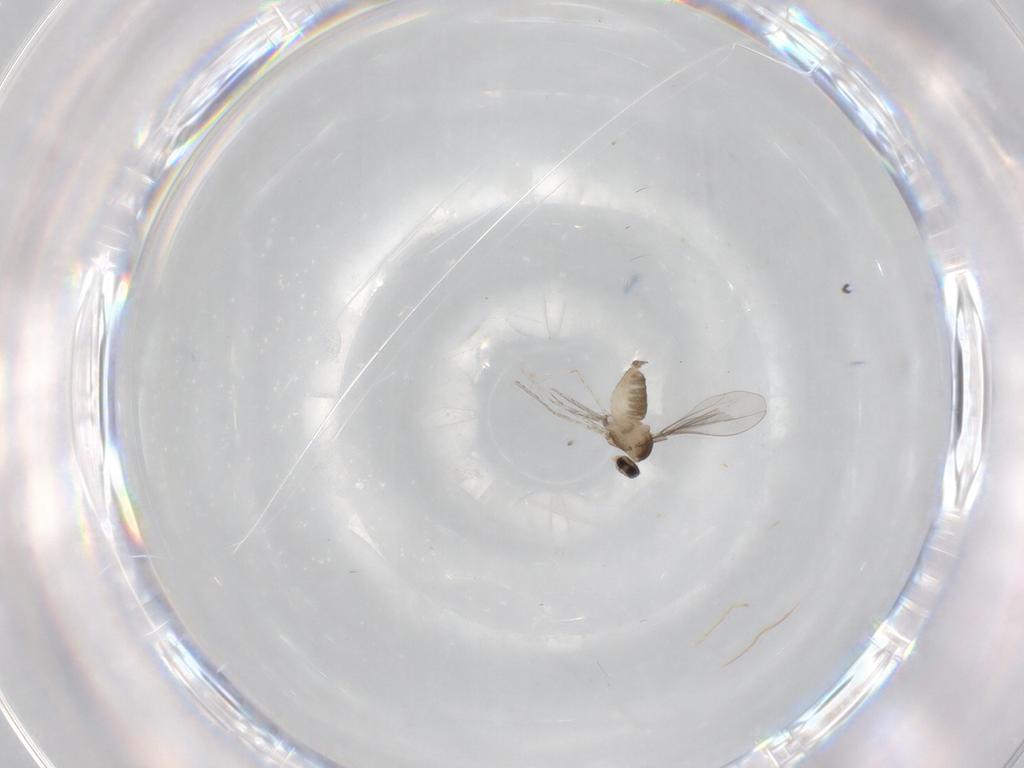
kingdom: Animalia
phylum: Arthropoda
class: Insecta
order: Diptera
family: Cecidomyiidae
